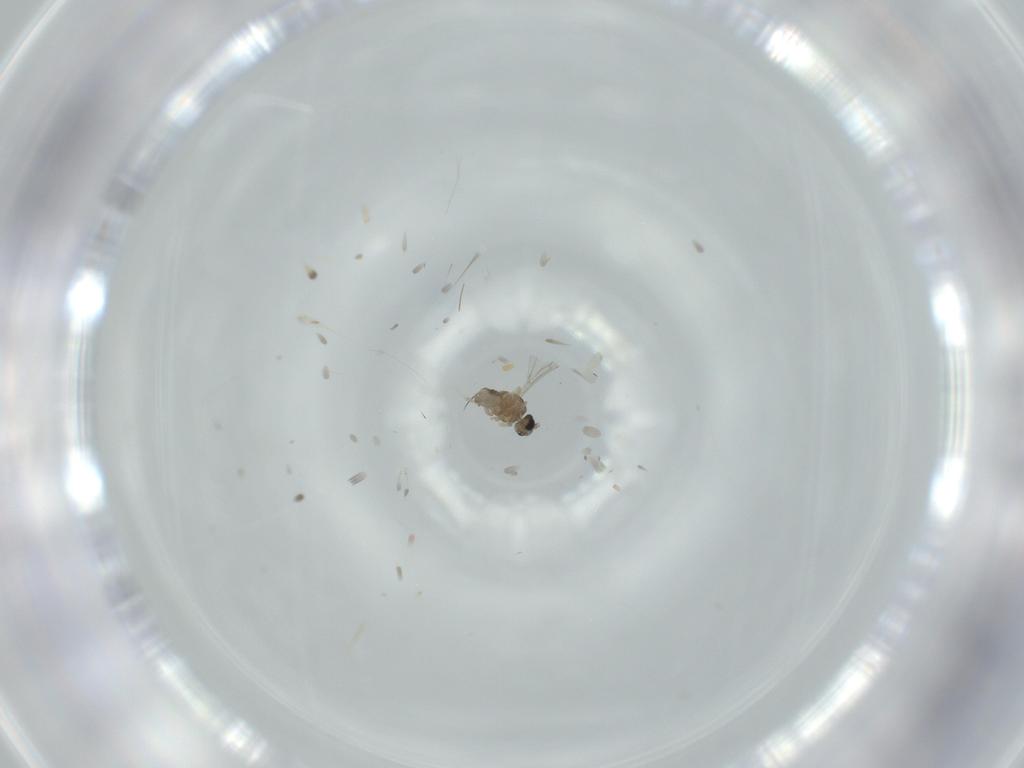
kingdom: Animalia
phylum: Arthropoda
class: Insecta
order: Diptera
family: Cecidomyiidae
